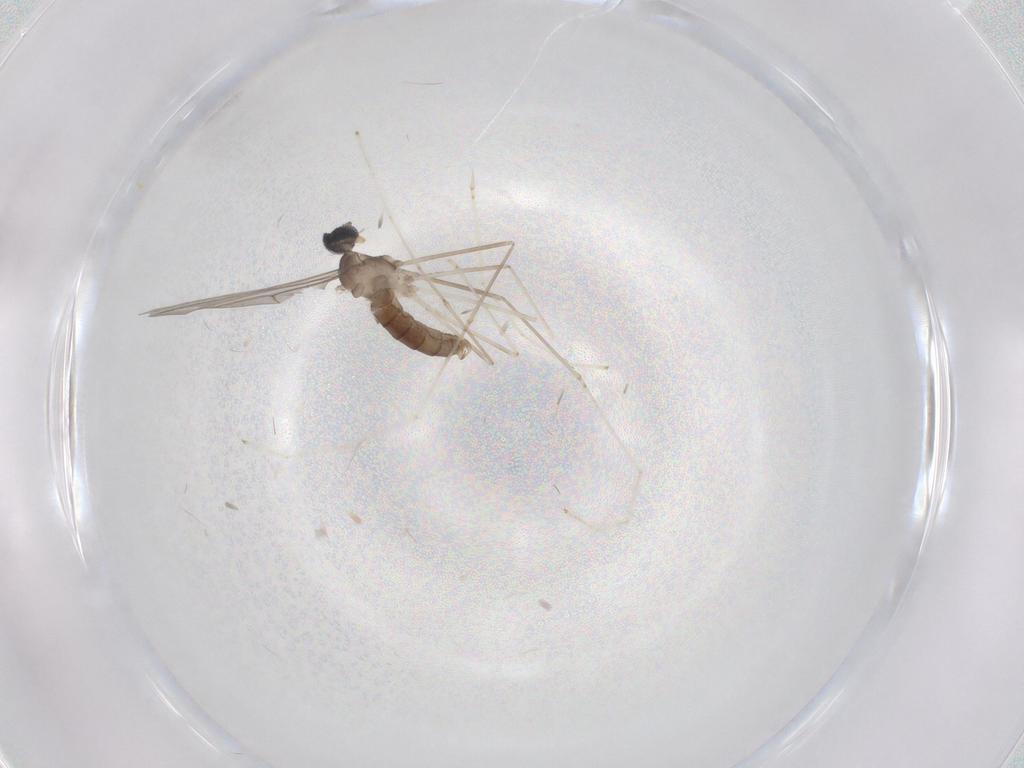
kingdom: Animalia
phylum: Arthropoda
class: Insecta
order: Diptera
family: Cecidomyiidae
